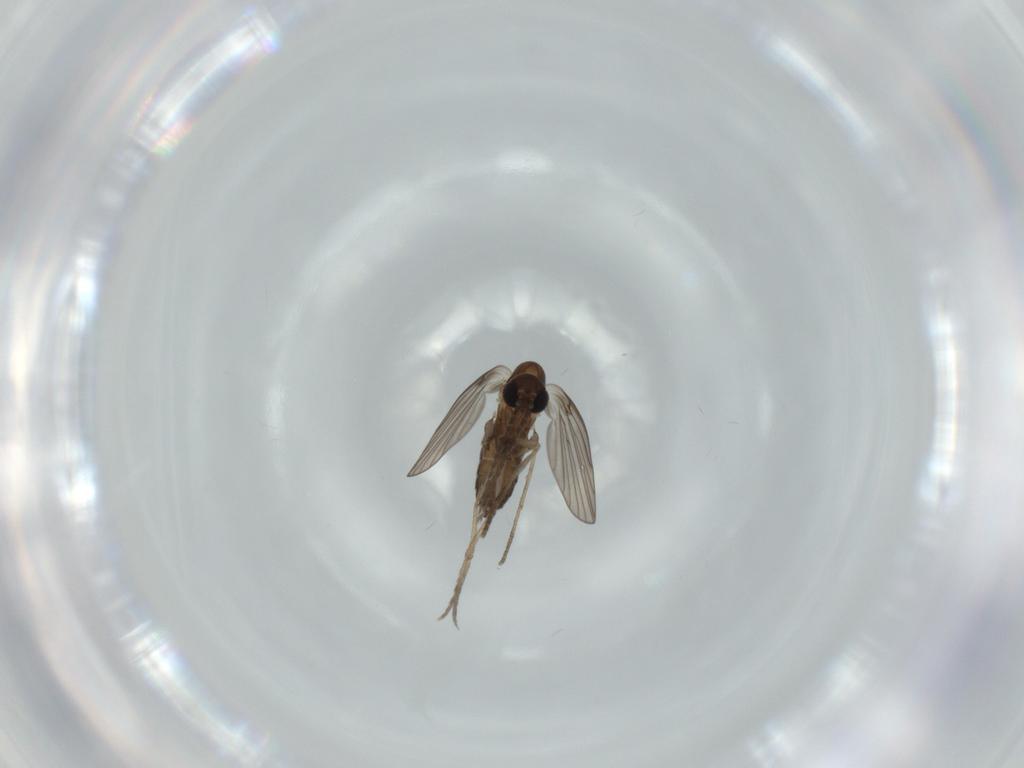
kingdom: Animalia
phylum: Arthropoda
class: Insecta
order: Diptera
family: Psychodidae
